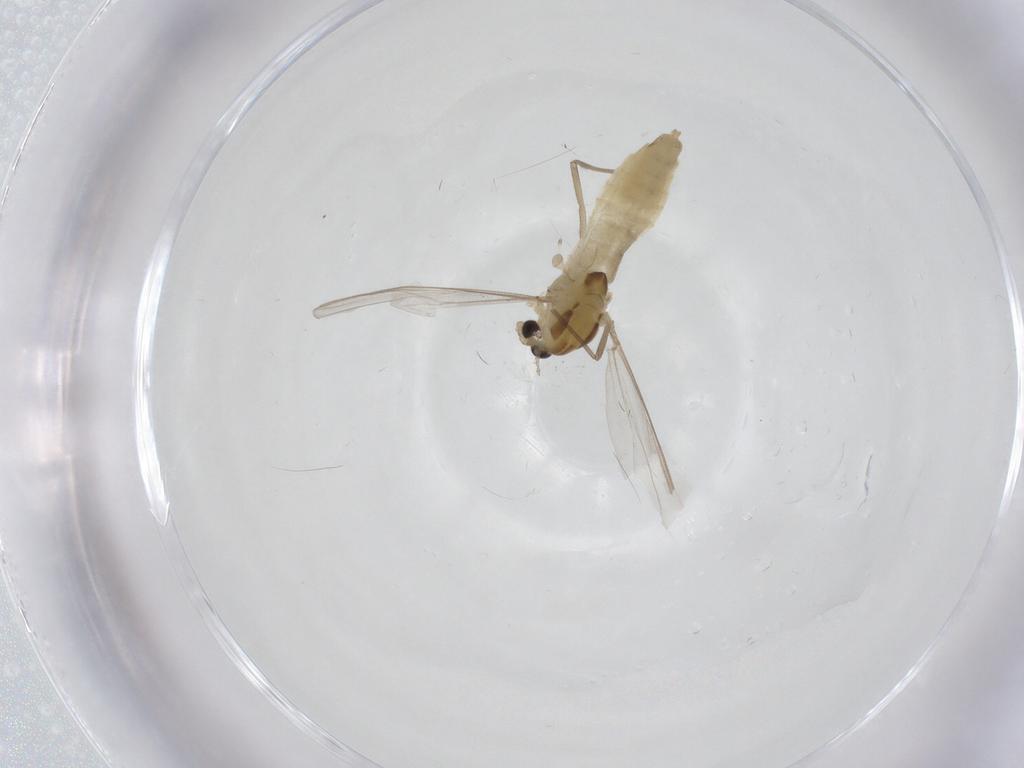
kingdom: Animalia
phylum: Arthropoda
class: Insecta
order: Diptera
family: Chironomidae
